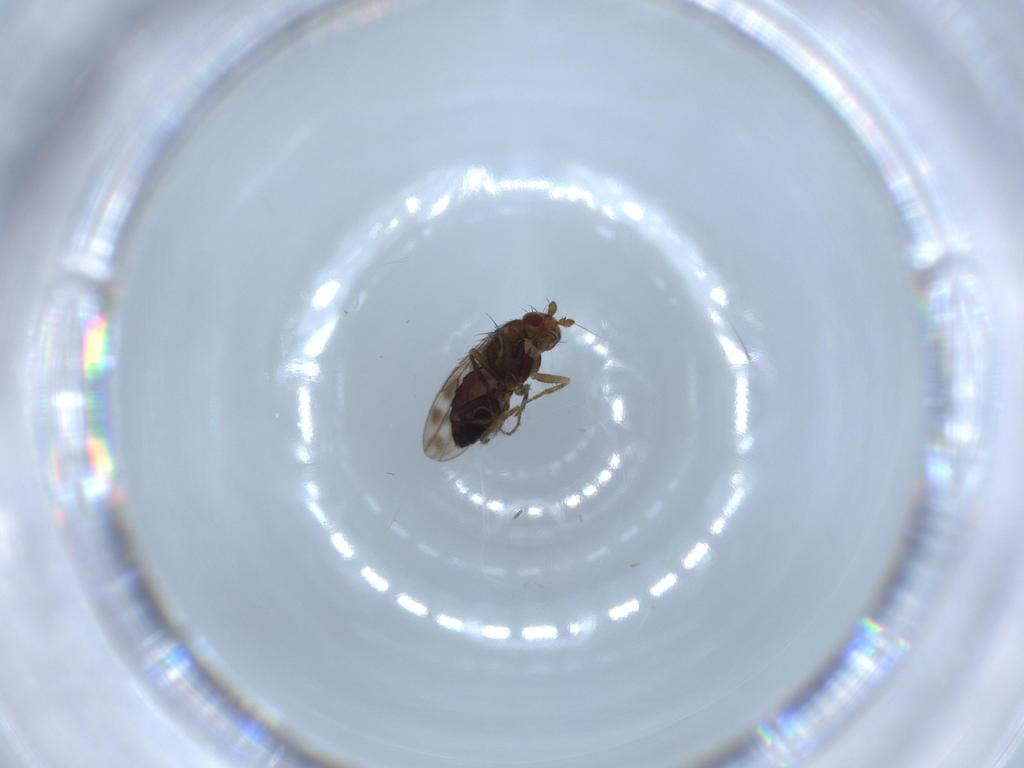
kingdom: Animalia
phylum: Arthropoda
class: Insecta
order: Diptera
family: Sphaeroceridae
